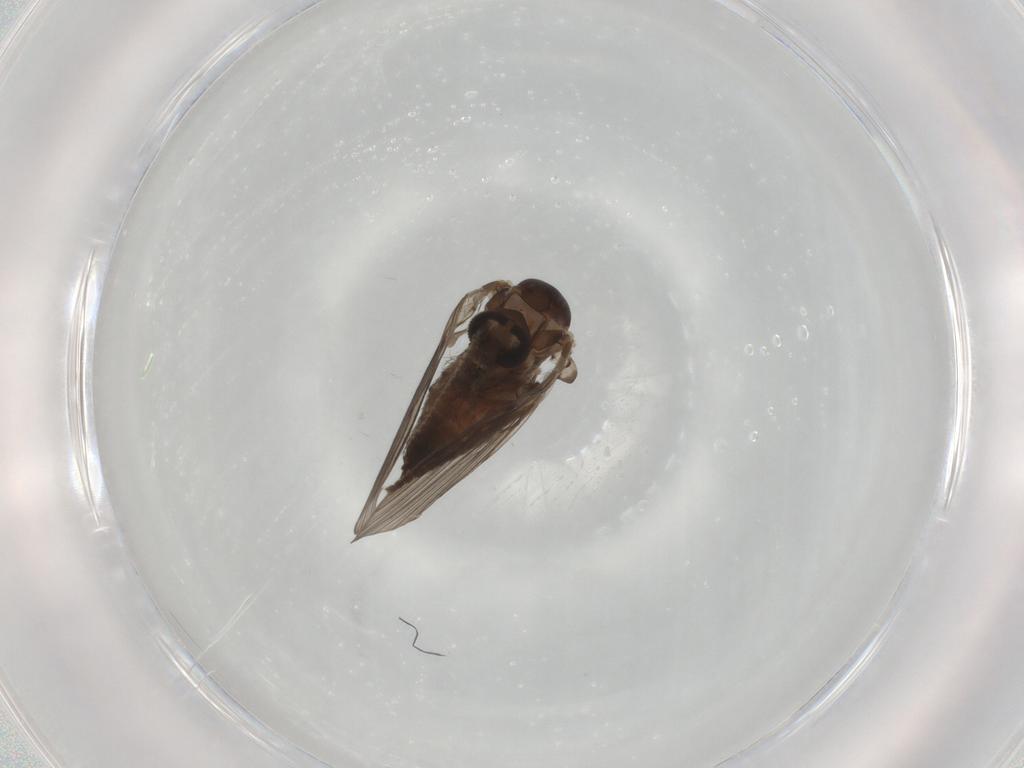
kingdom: Animalia
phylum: Arthropoda
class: Insecta
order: Diptera
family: Psychodidae
